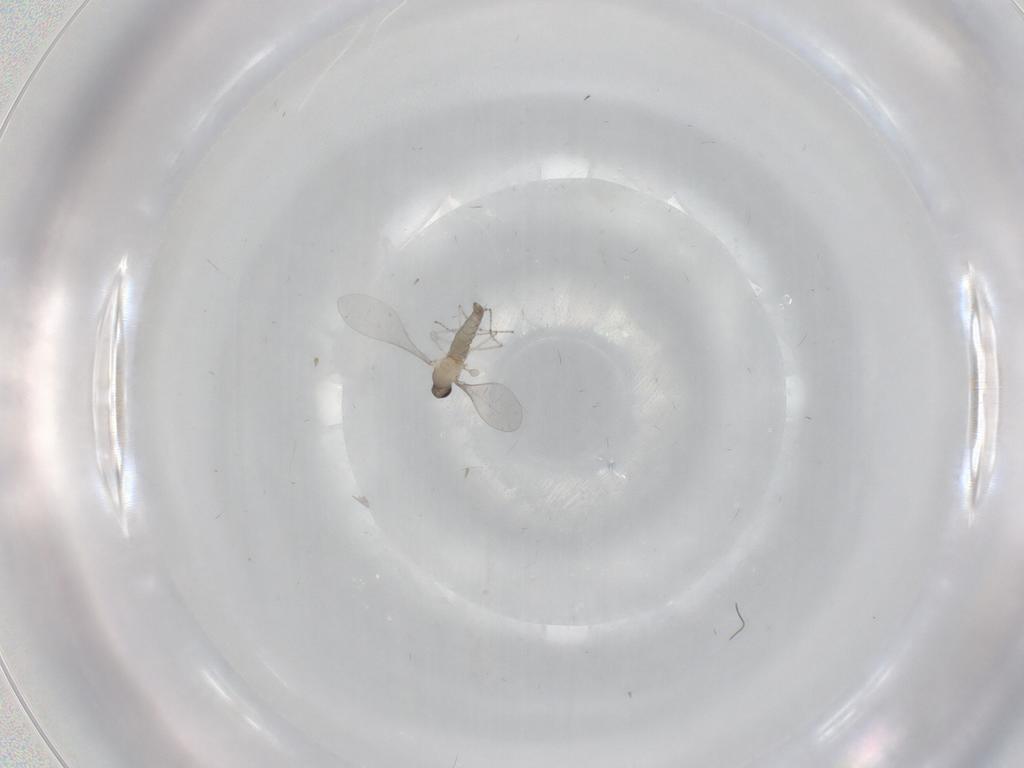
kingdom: Animalia
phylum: Arthropoda
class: Insecta
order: Diptera
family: Cecidomyiidae
